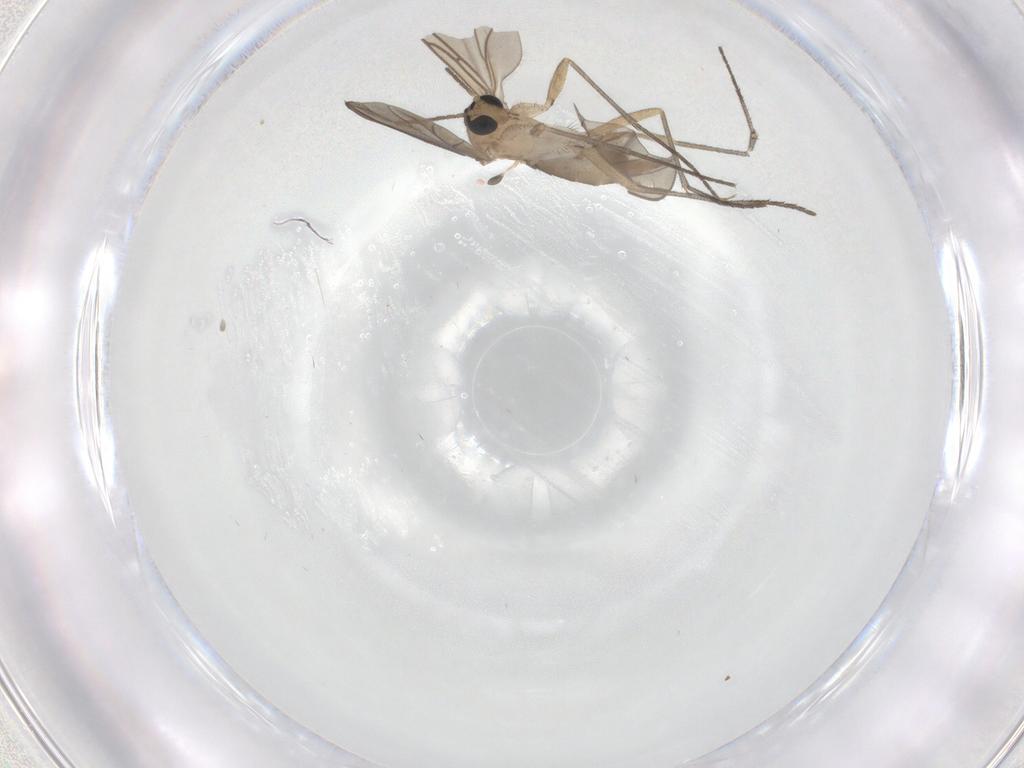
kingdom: Animalia
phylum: Arthropoda
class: Insecta
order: Diptera
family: Sciaridae
